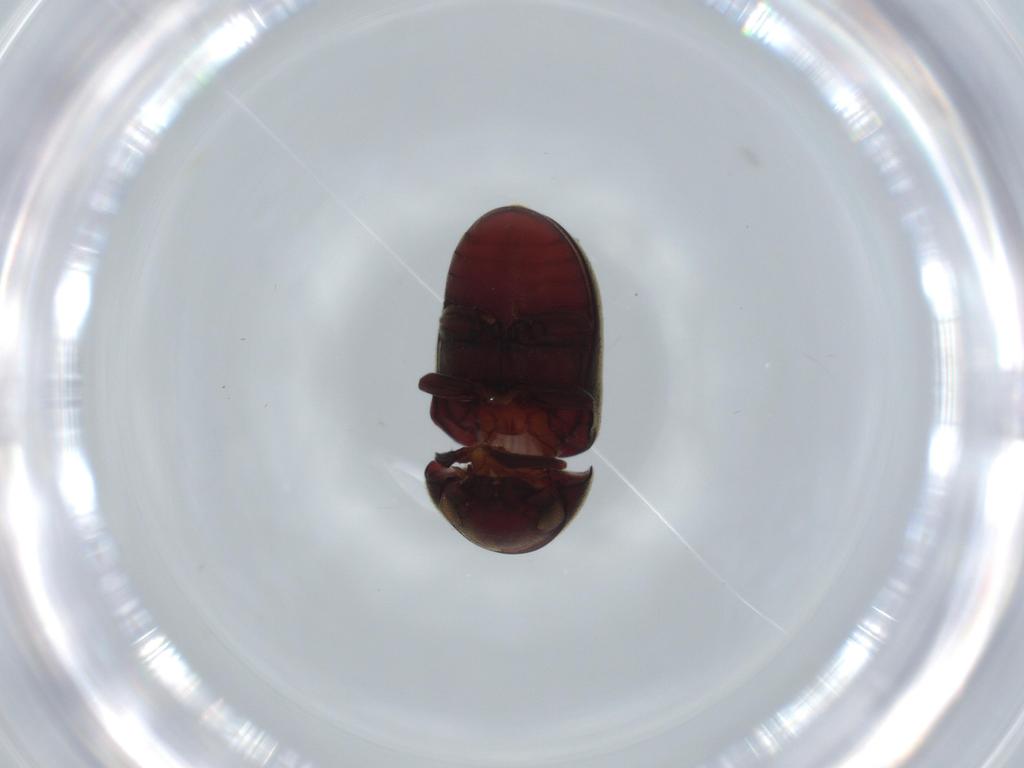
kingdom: Animalia
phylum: Arthropoda
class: Insecta
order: Coleoptera
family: Ptinidae
